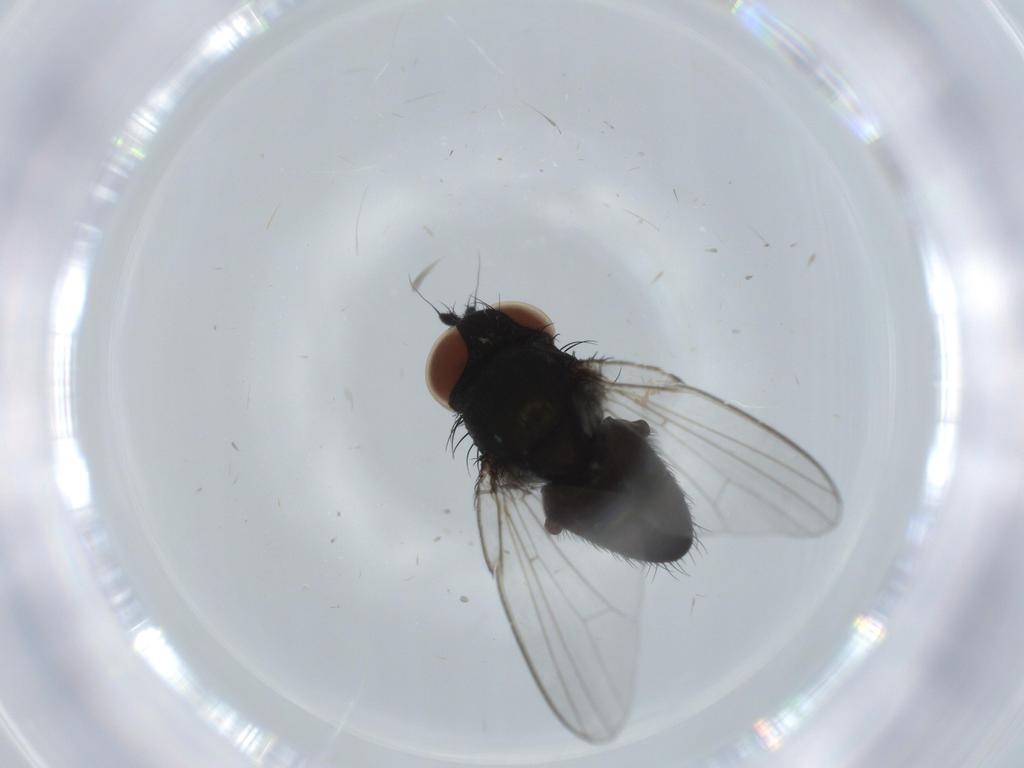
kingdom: Animalia
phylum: Arthropoda
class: Insecta
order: Diptera
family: Milichiidae
